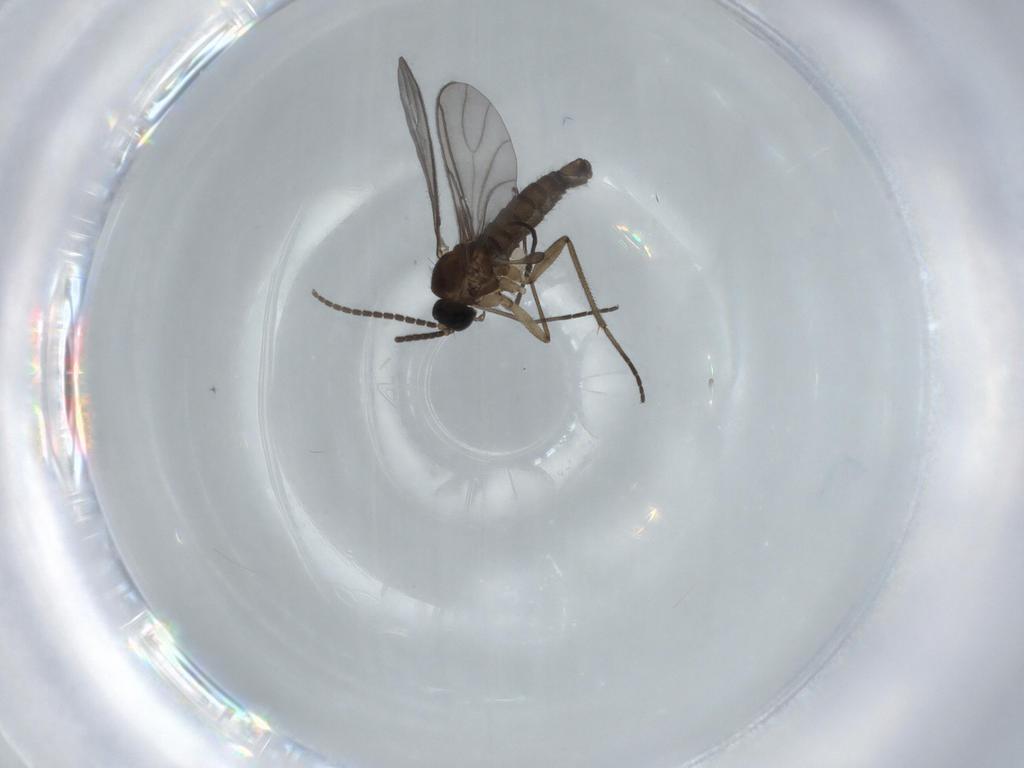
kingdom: Animalia
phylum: Arthropoda
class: Insecta
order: Diptera
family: Sciaridae
